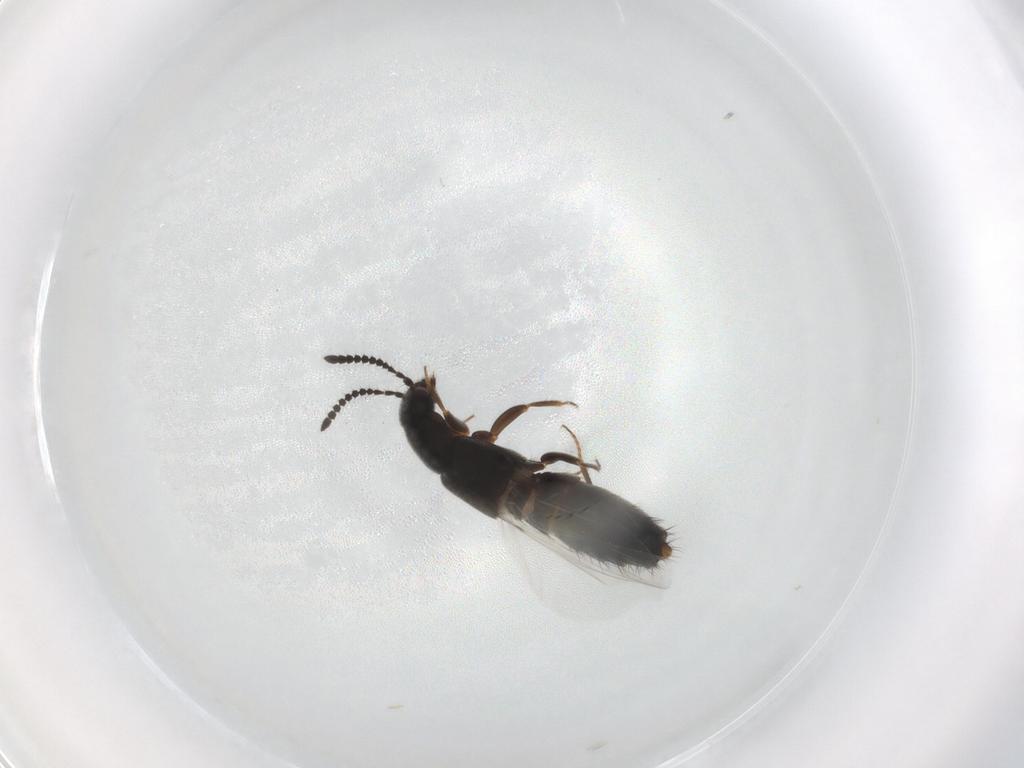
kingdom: Animalia
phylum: Arthropoda
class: Insecta
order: Coleoptera
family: Staphylinidae
